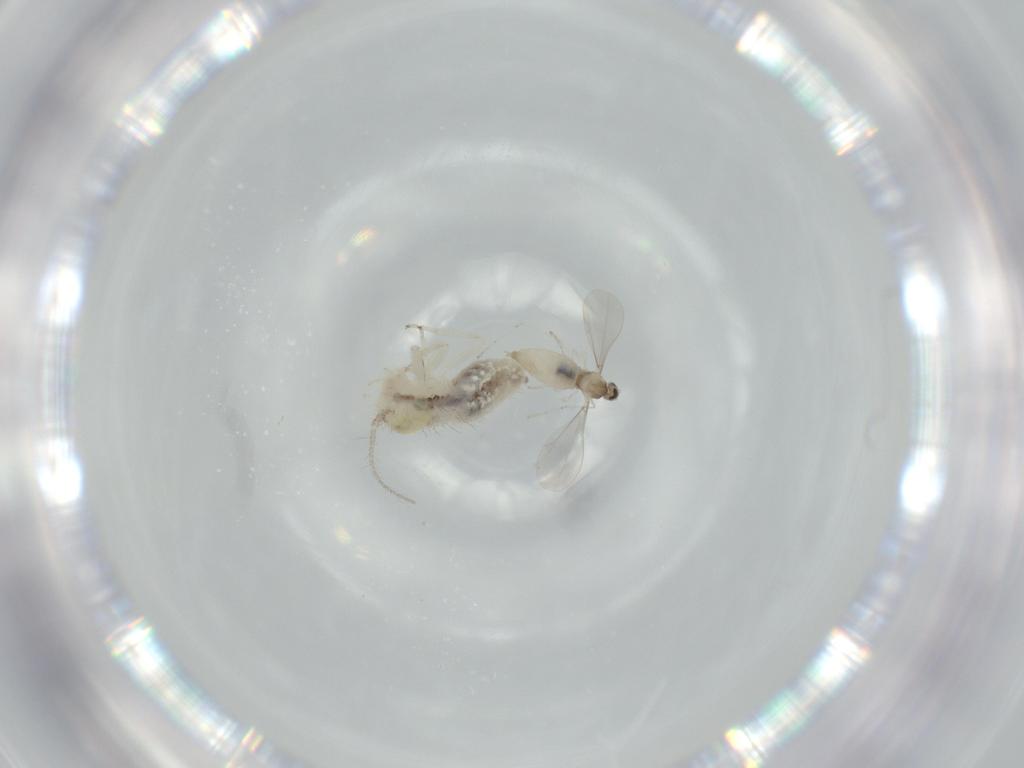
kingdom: Animalia
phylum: Arthropoda
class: Insecta
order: Diptera
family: Cecidomyiidae
